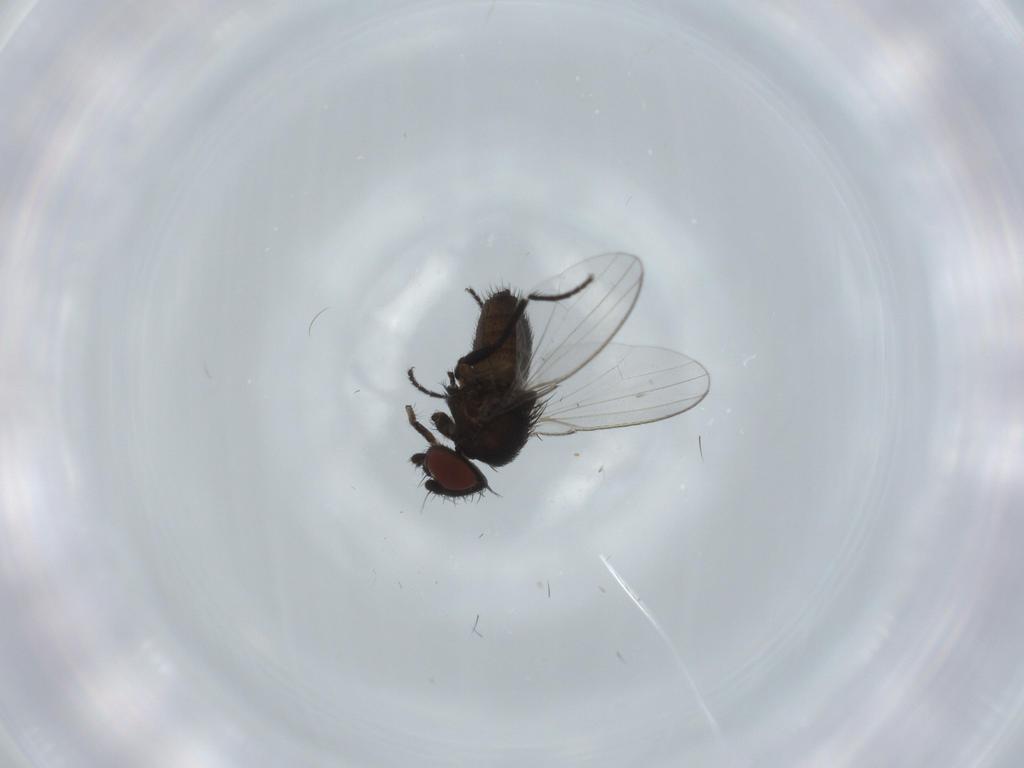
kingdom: Animalia
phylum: Arthropoda
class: Insecta
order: Diptera
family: Milichiidae
